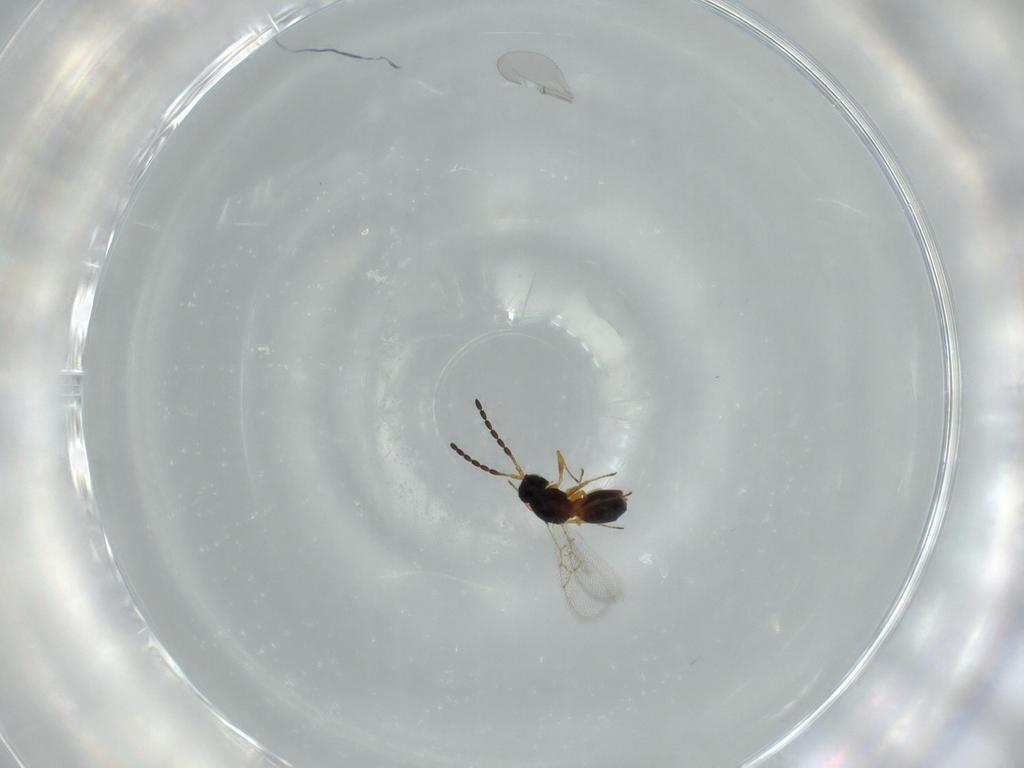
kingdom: Animalia
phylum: Arthropoda
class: Insecta
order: Hymenoptera
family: Figitidae
